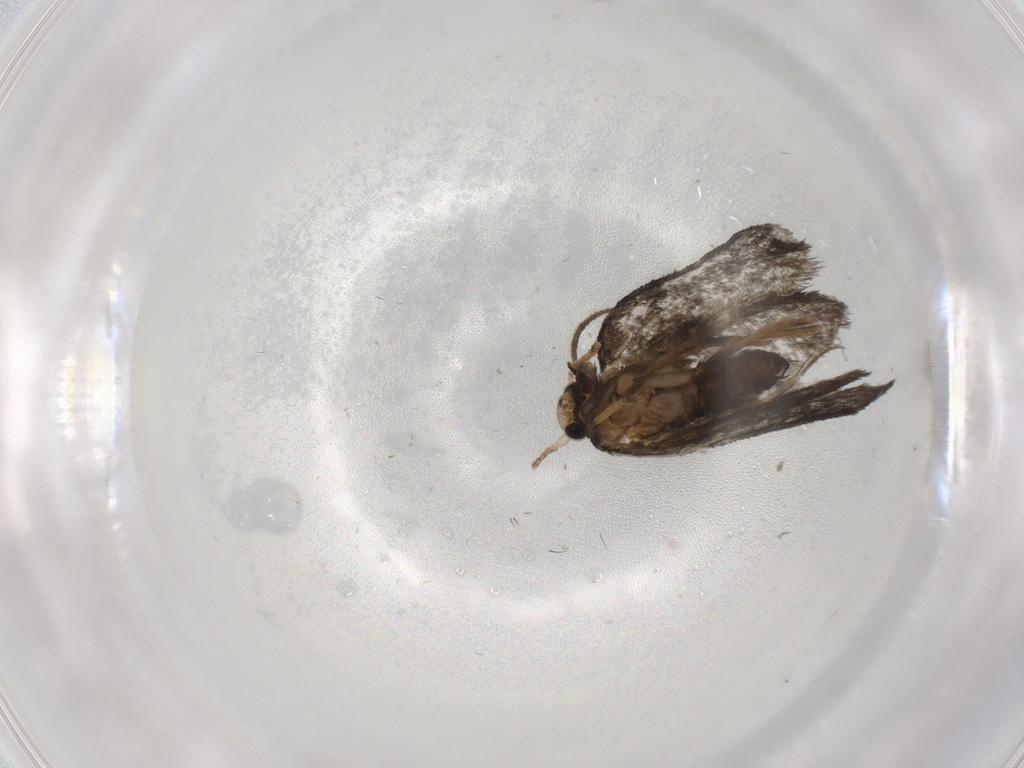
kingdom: Animalia
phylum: Arthropoda
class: Insecta
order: Lepidoptera
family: Psychidae
